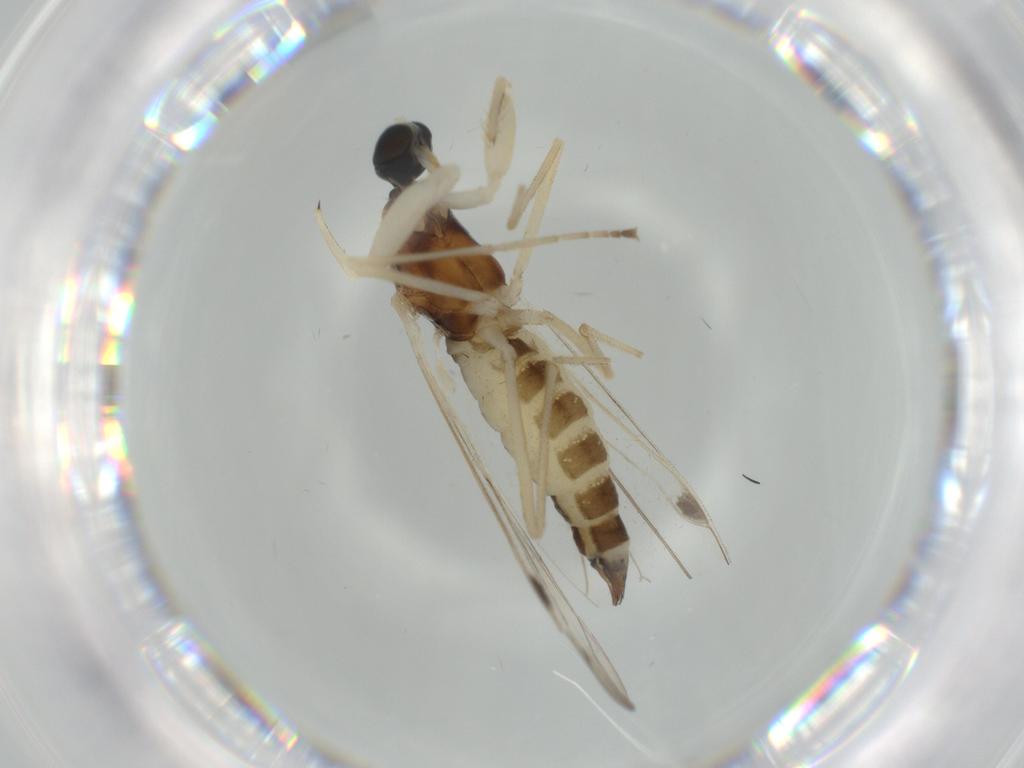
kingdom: Animalia
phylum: Arthropoda
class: Insecta
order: Diptera
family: Cecidomyiidae
